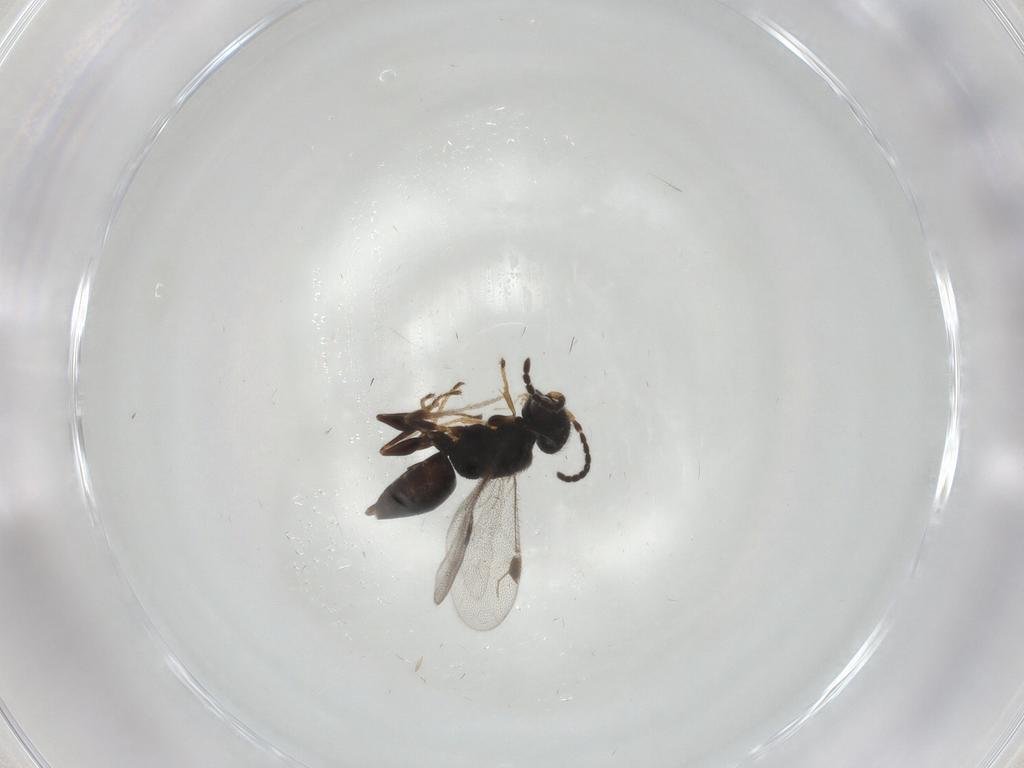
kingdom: Animalia
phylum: Arthropoda
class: Insecta
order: Hymenoptera
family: Dryinidae
